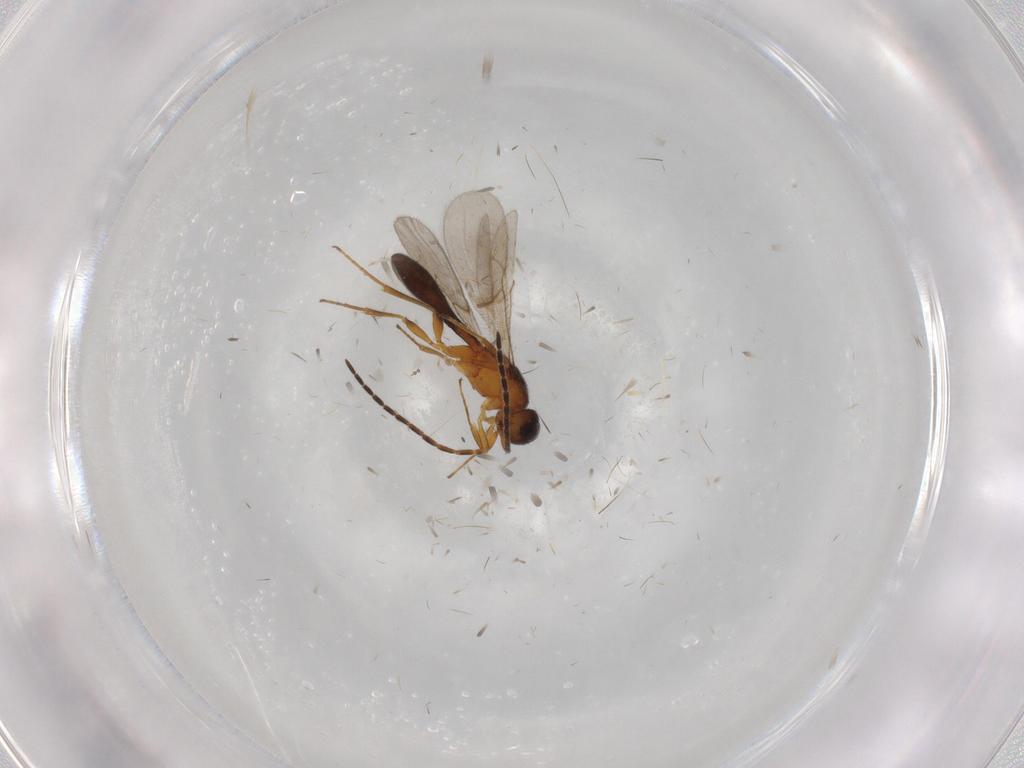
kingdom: Animalia
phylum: Arthropoda
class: Insecta
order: Hymenoptera
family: Scelionidae
